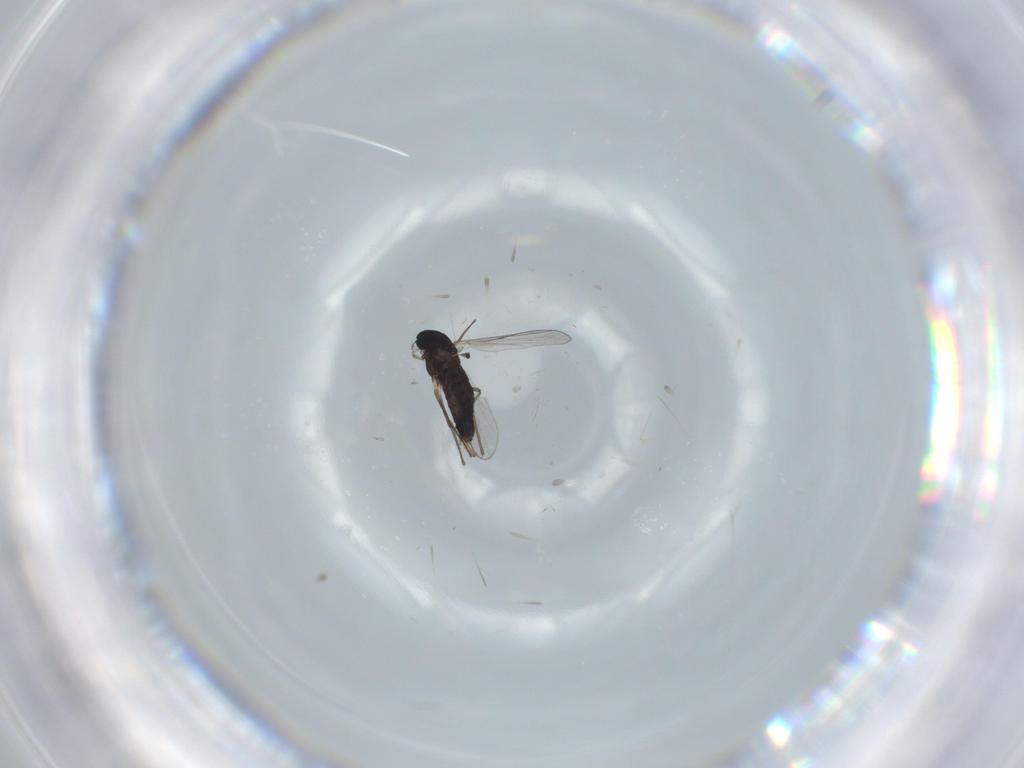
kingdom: Animalia
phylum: Arthropoda
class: Insecta
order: Diptera
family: Chironomidae
